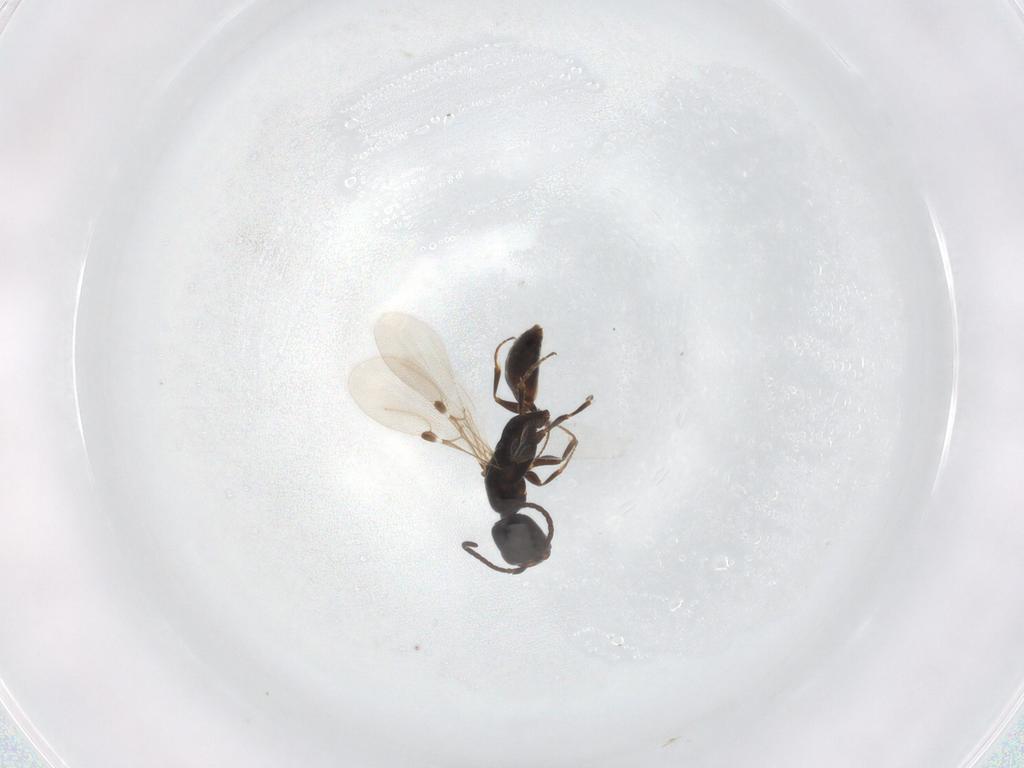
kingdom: Animalia
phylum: Arthropoda
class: Insecta
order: Hymenoptera
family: Bethylidae
